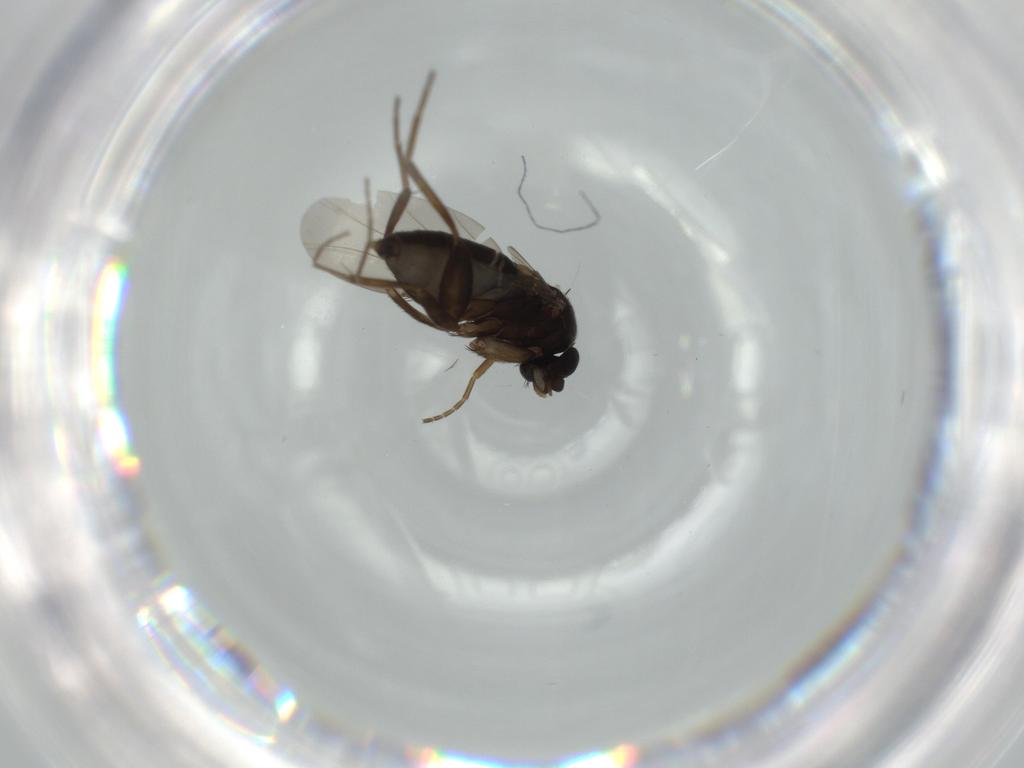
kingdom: Animalia
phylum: Arthropoda
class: Insecta
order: Diptera
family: Phoridae
